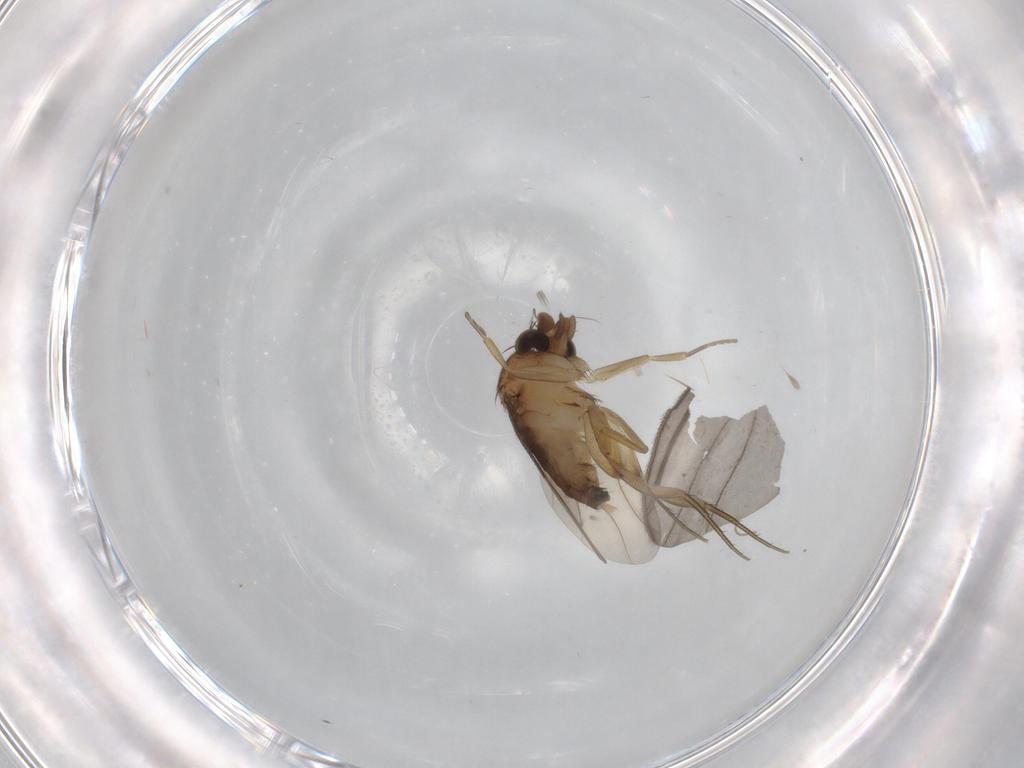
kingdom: Animalia
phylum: Arthropoda
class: Insecta
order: Diptera
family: Phoridae
